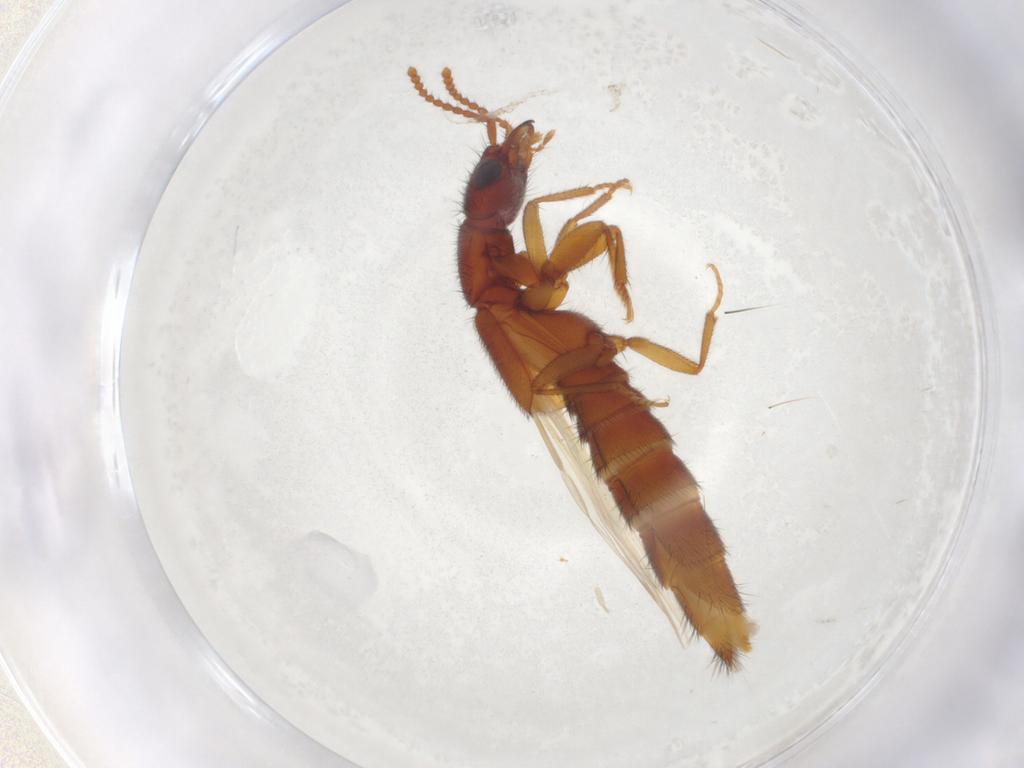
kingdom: Animalia
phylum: Arthropoda
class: Insecta
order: Coleoptera
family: Staphylinidae
